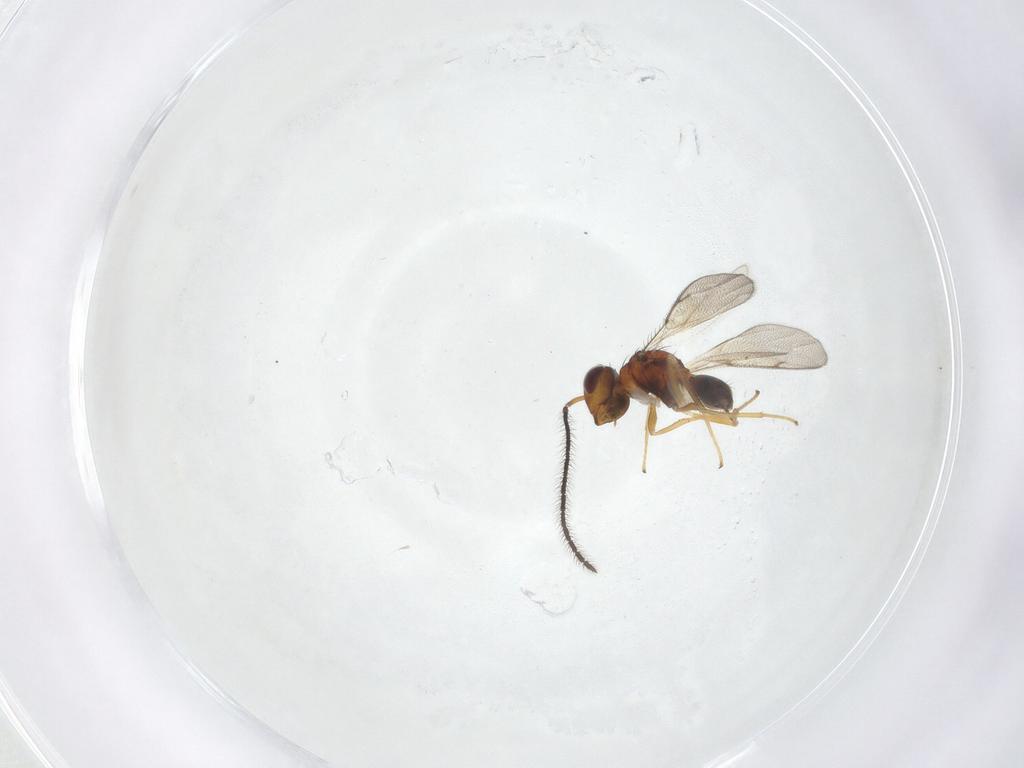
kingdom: Animalia
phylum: Arthropoda
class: Insecta
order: Hymenoptera
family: Diparidae
